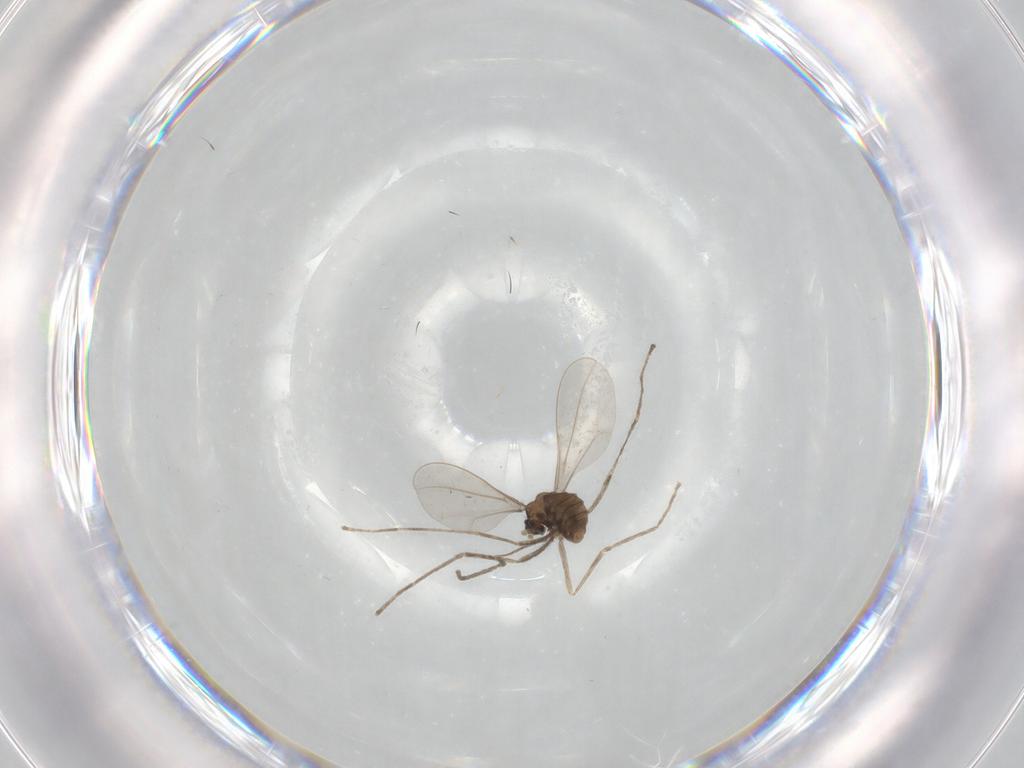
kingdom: Animalia
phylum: Arthropoda
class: Insecta
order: Diptera
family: Cecidomyiidae
